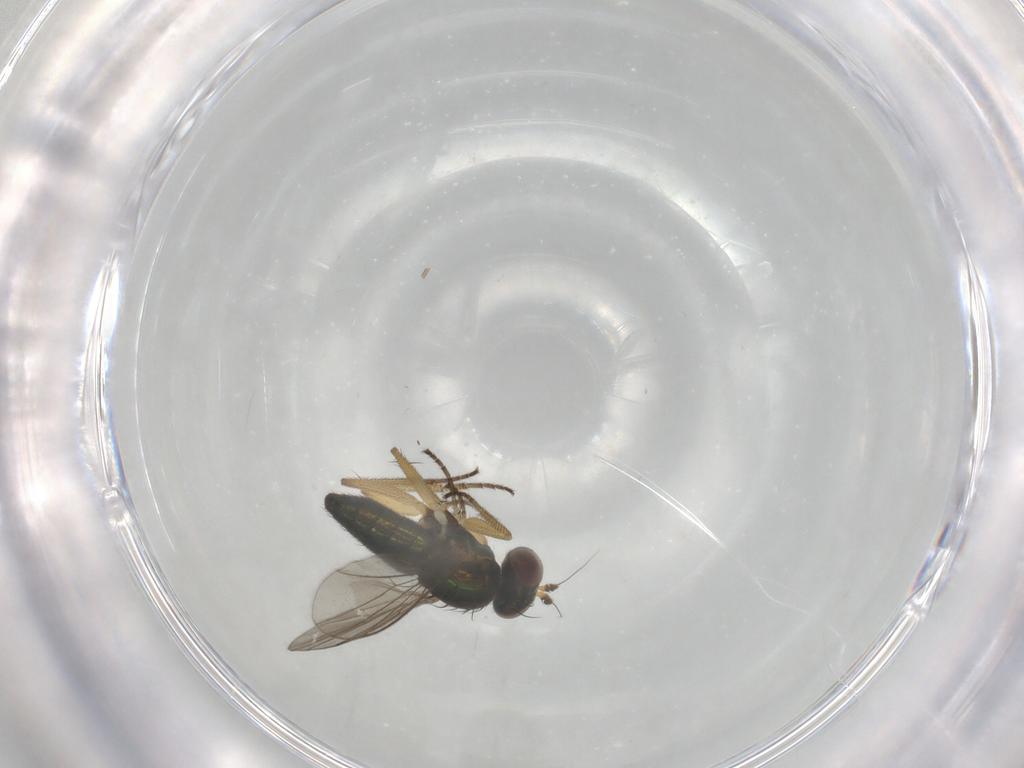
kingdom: Animalia
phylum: Arthropoda
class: Insecta
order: Diptera
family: Dolichopodidae
